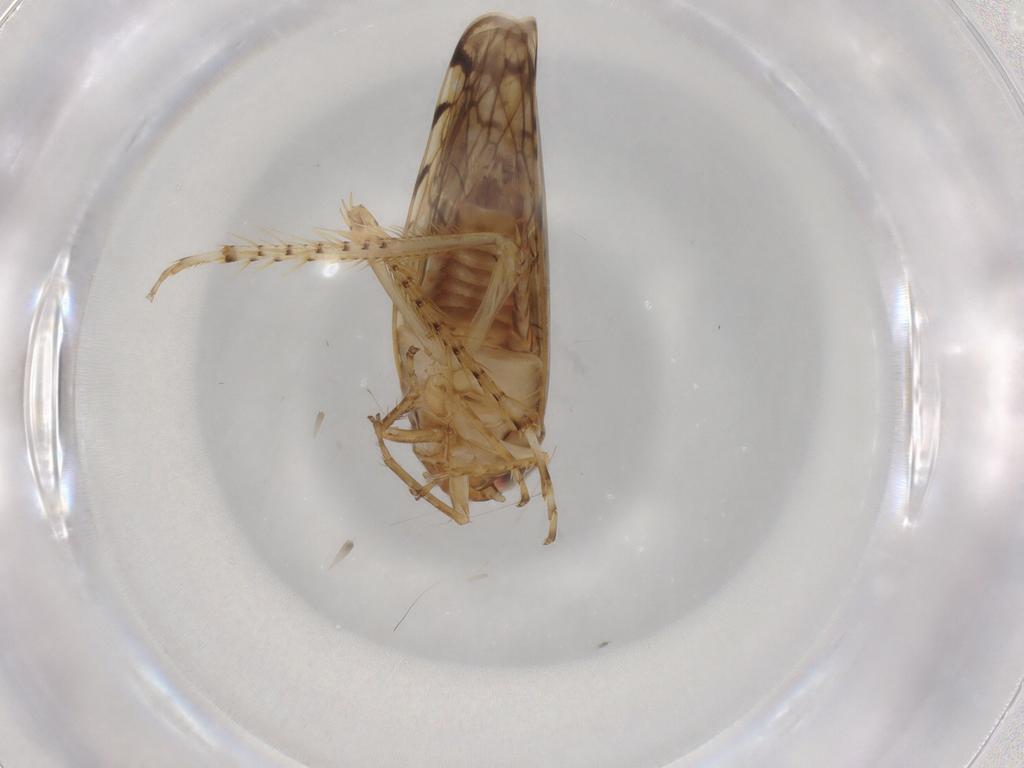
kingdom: Animalia
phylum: Arthropoda
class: Insecta
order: Hemiptera
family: Cicadellidae
